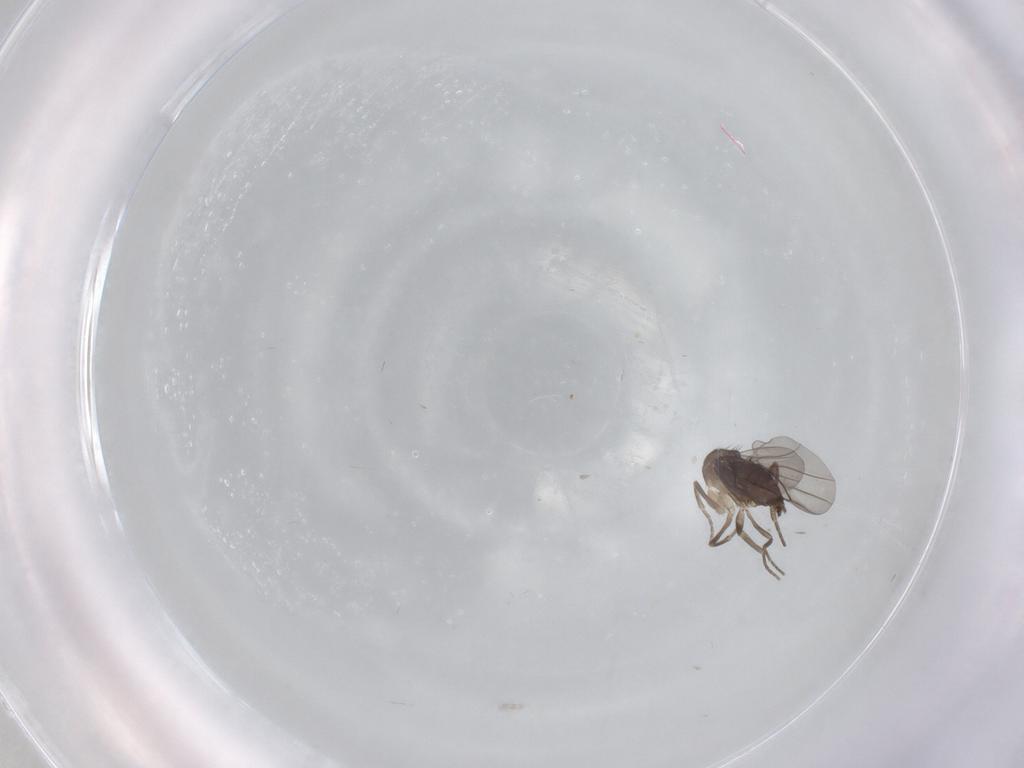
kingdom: Animalia
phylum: Arthropoda
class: Insecta
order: Diptera
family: Phoridae
